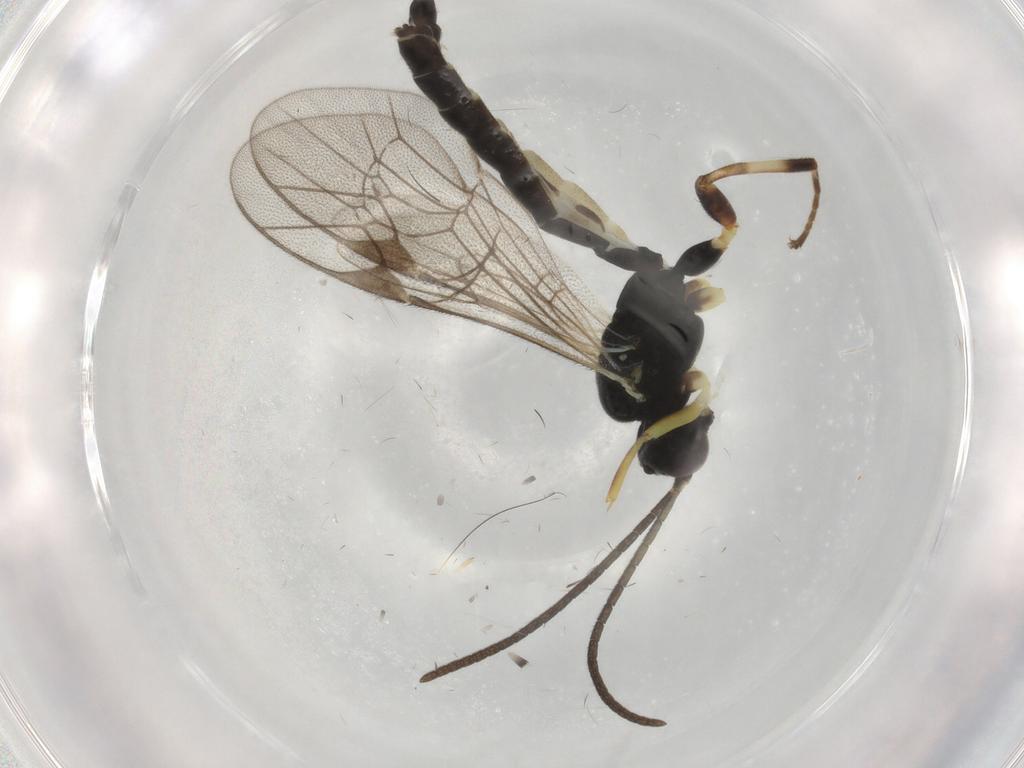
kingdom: Animalia
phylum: Arthropoda
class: Insecta
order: Hymenoptera
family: Ichneumonidae
